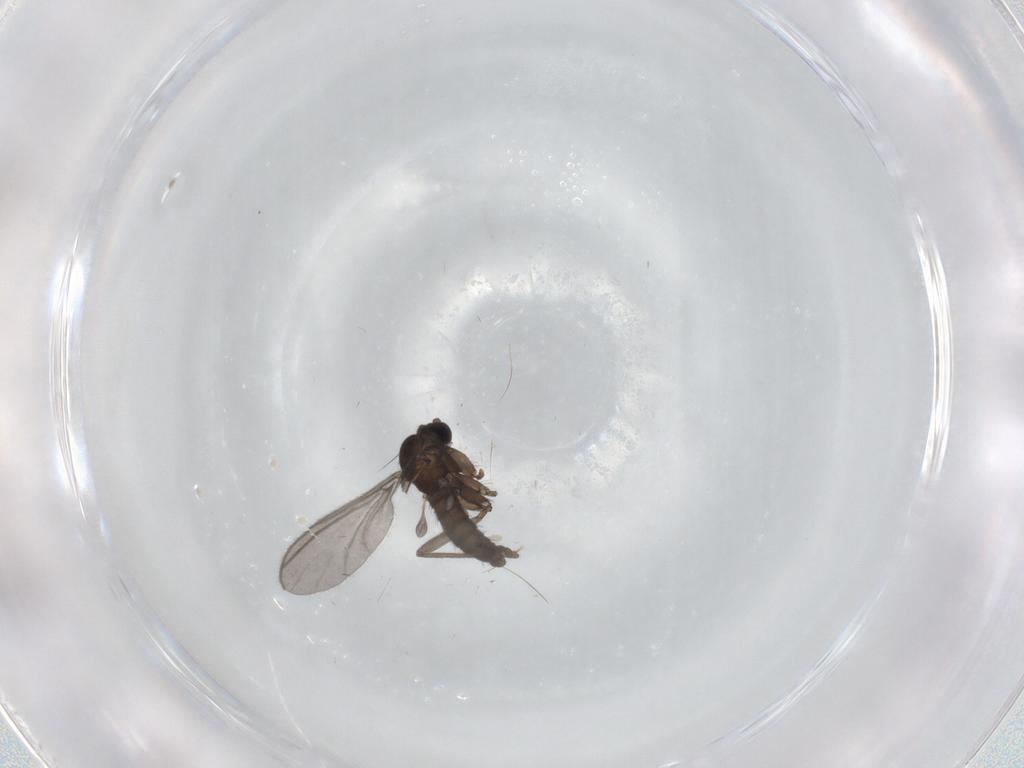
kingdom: Animalia
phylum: Arthropoda
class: Insecta
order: Diptera
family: Sciaridae
